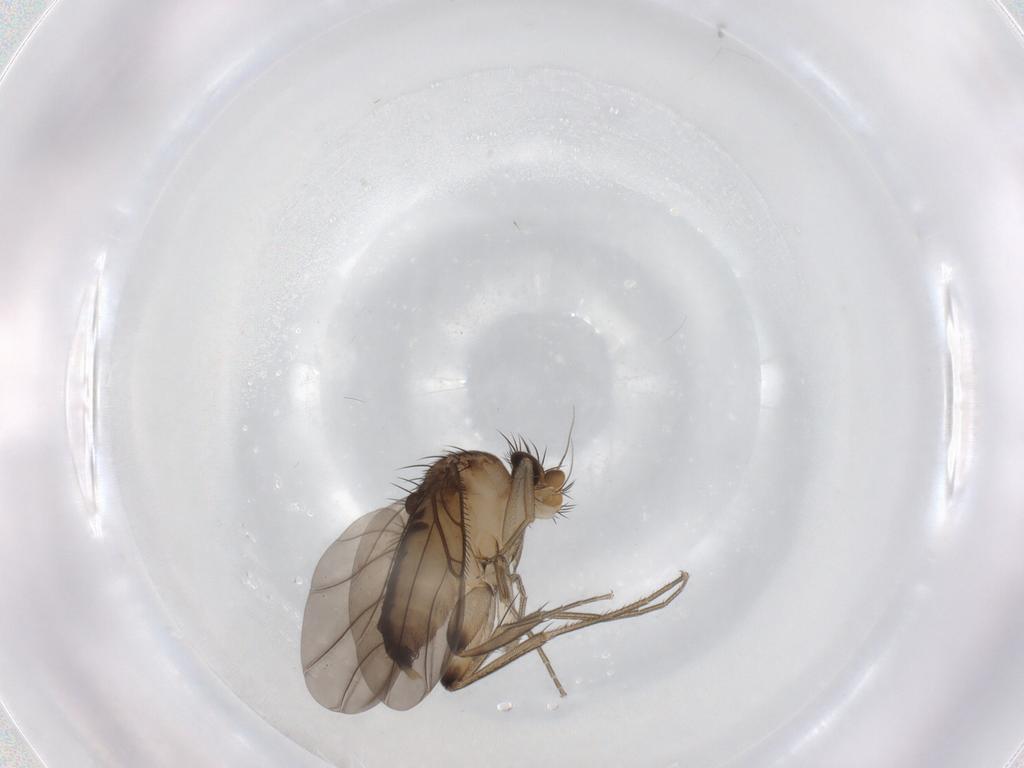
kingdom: Animalia
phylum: Arthropoda
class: Insecta
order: Diptera
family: Phoridae
